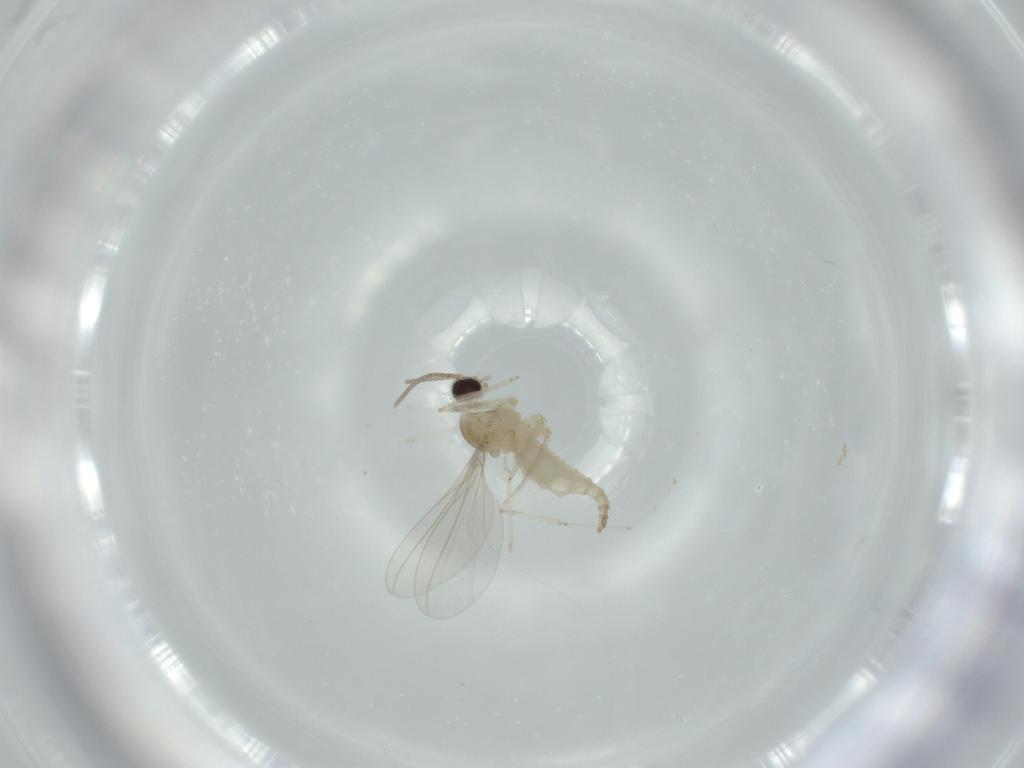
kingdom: Animalia
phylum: Arthropoda
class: Insecta
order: Diptera
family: Cecidomyiidae
